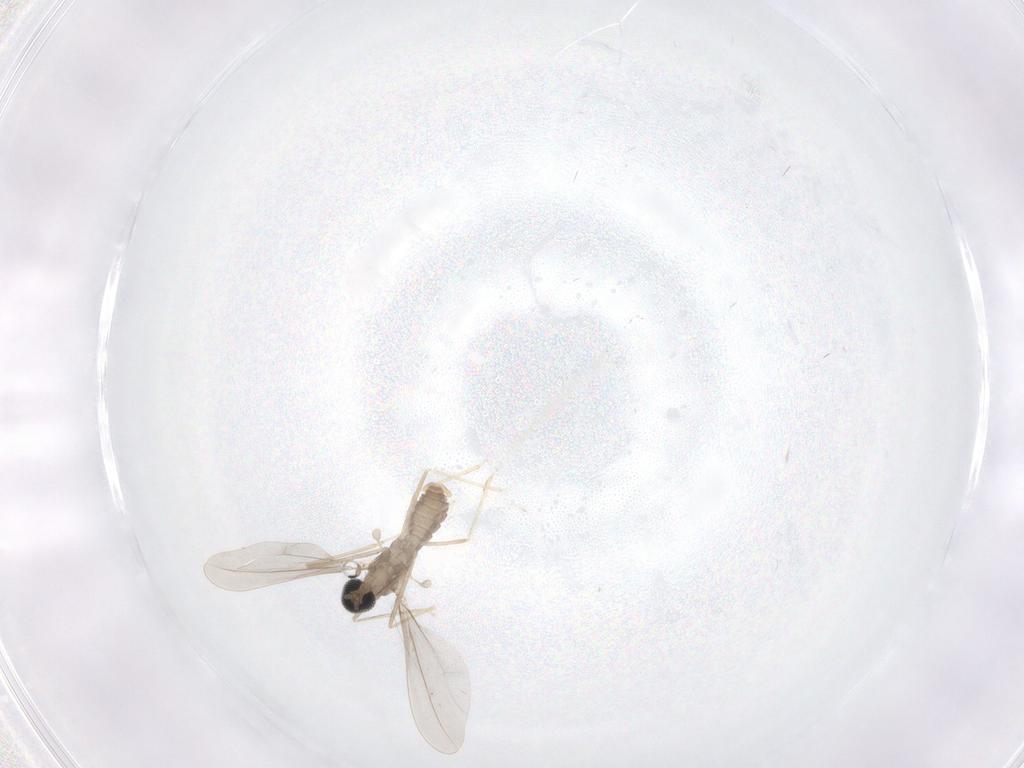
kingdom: Animalia
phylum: Arthropoda
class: Insecta
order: Diptera
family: Cecidomyiidae
